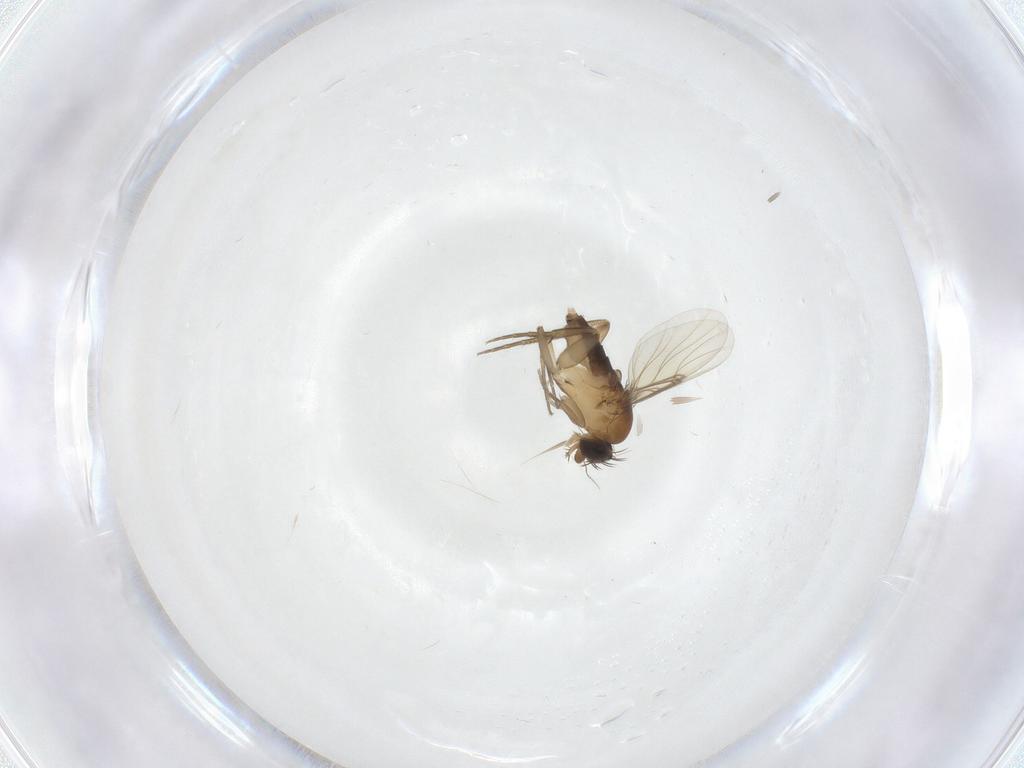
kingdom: Animalia
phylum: Arthropoda
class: Insecta
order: Diptera
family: Phoridae
